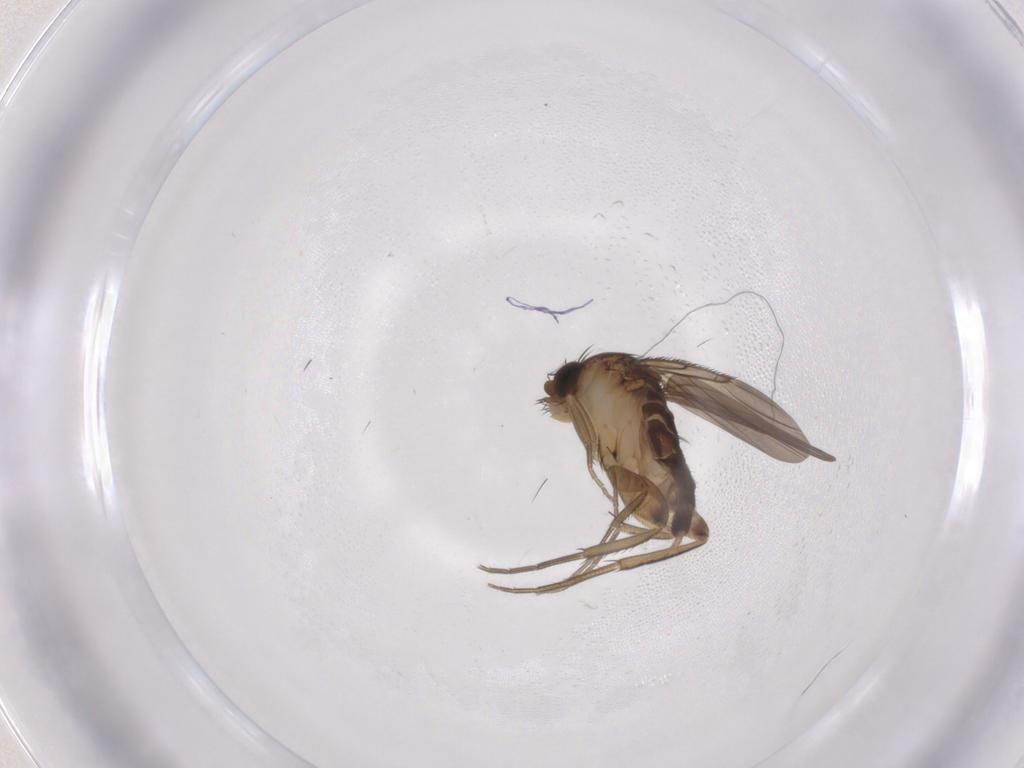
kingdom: Animalia
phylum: Arthropoda
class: Insecta
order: Diptera
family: Phoridae
